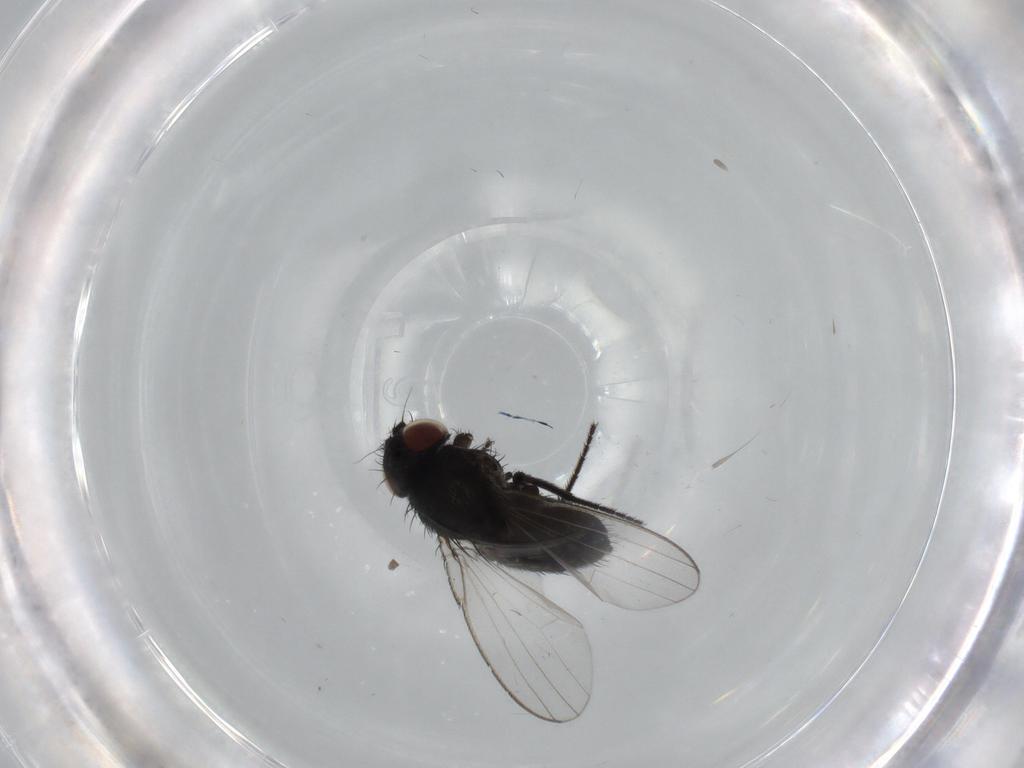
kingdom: Animalia
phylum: Arthropoda
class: Insecta
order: Diptera
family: Milichiidae
